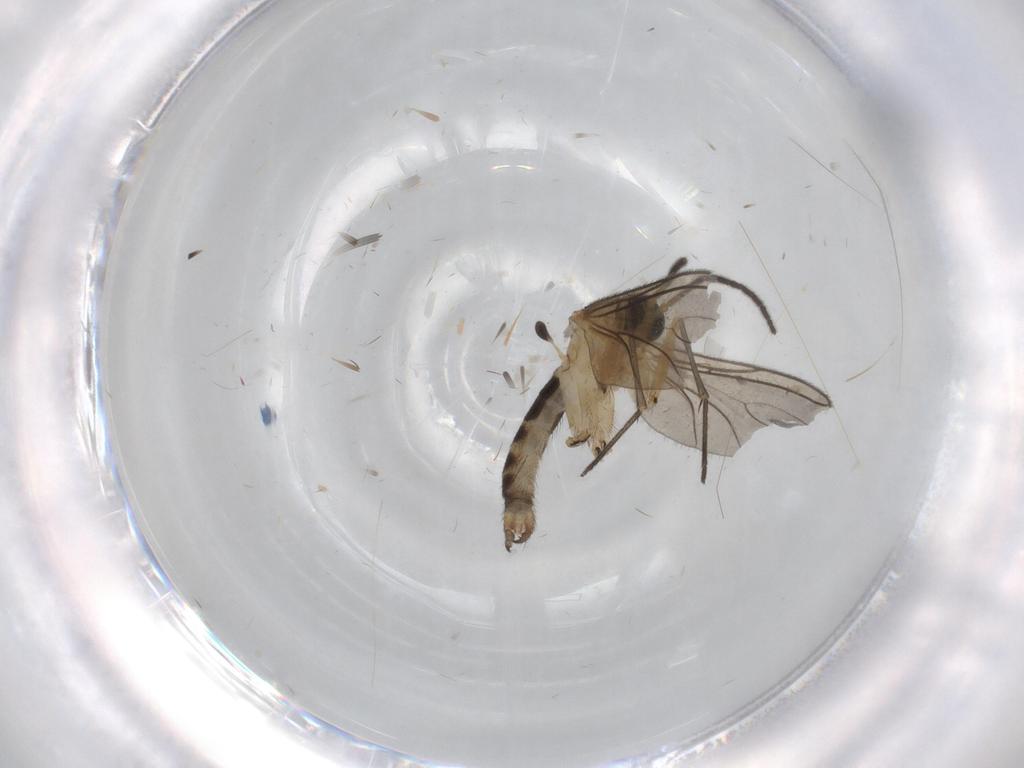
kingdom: Animalia
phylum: Arthropoda
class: Insecta
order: Diptera
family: Sciaridae
